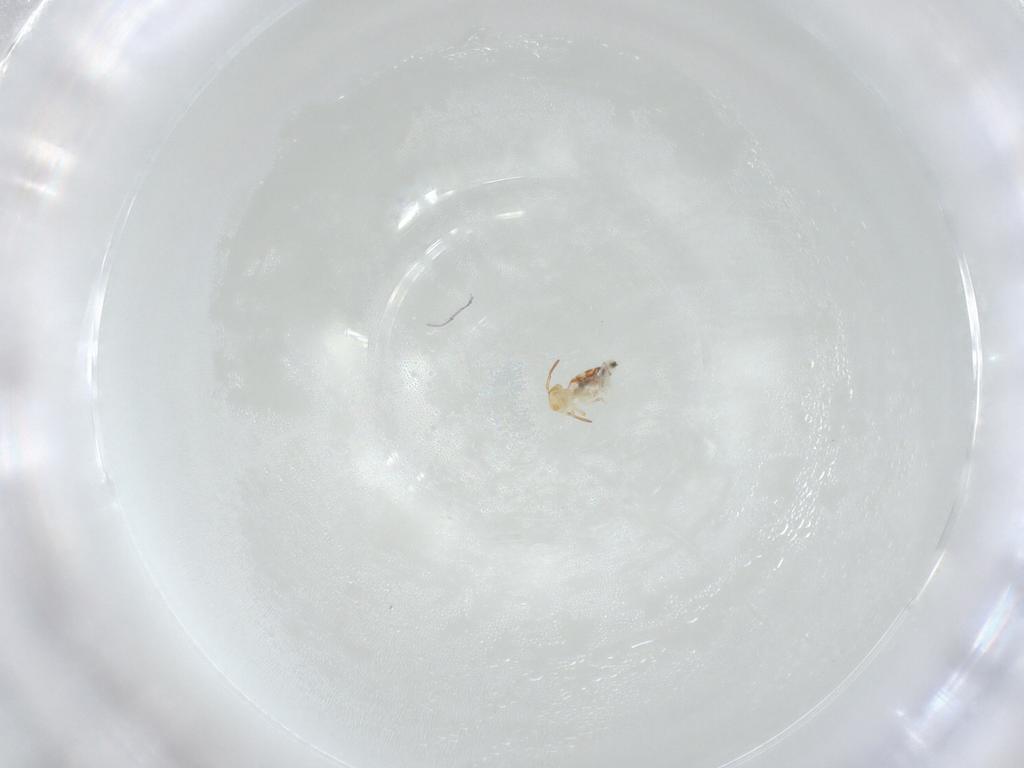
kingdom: Animalia
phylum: Arthropoda
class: Collembola
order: Symphypleona
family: Bourletiellidae
